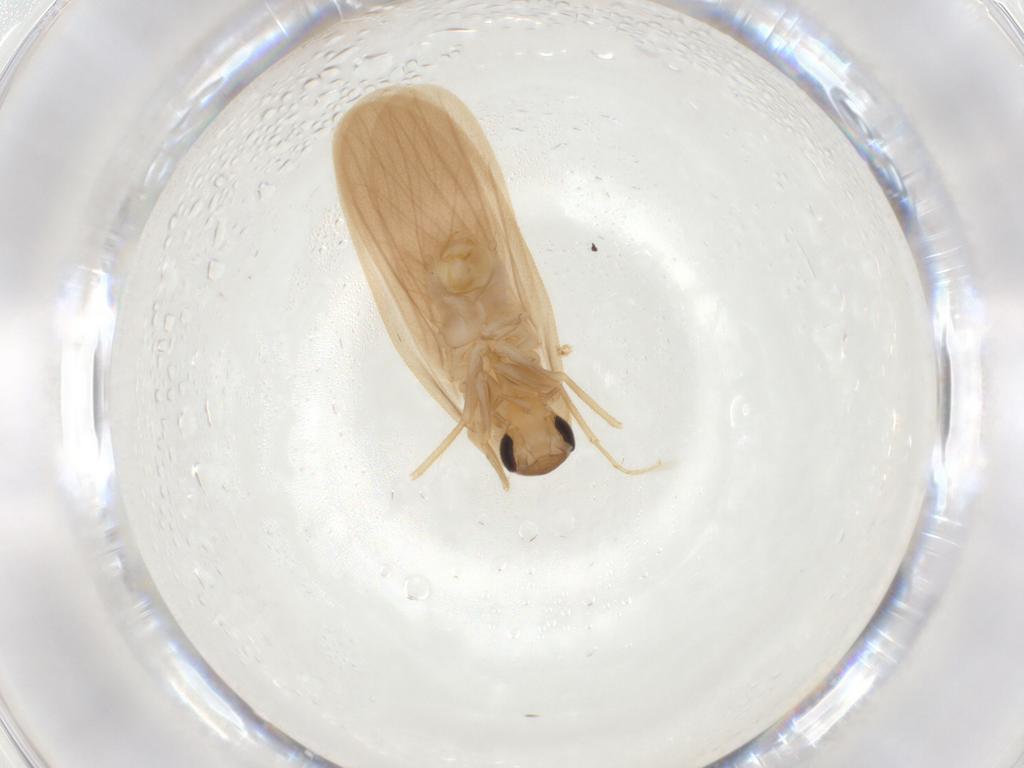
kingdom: Animalia
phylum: Arthropoda
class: Insecta
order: Blattodea
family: Nocticolidae
